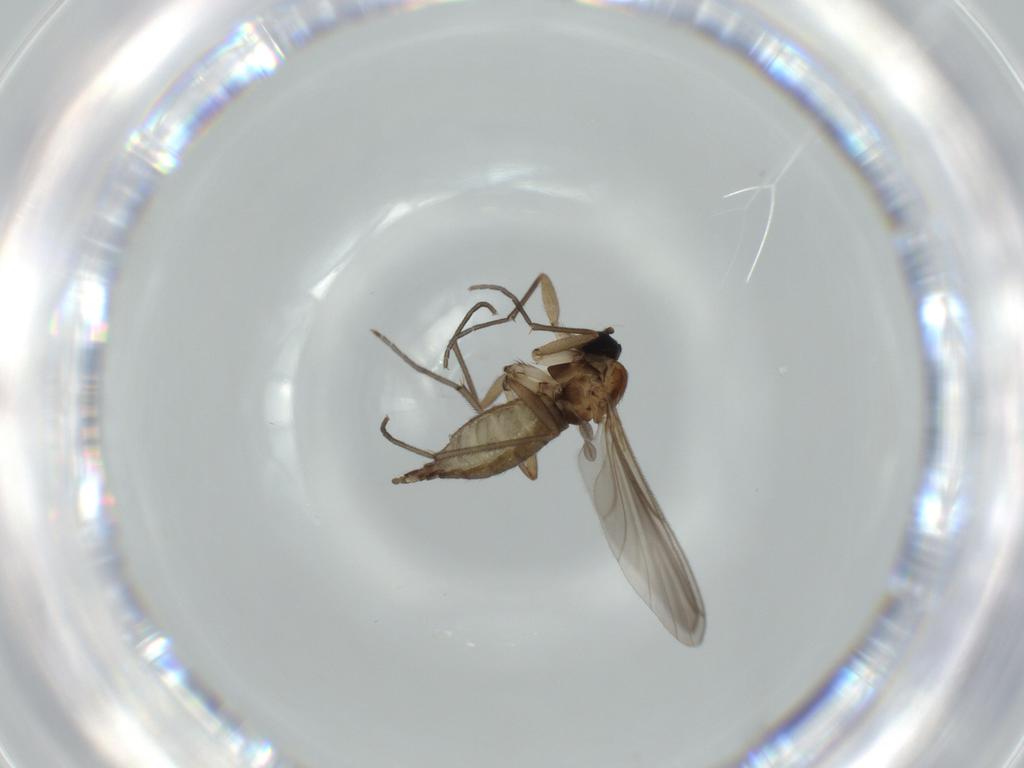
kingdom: Animalia
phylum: Arthropoda
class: Insecta
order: Diptera
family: Sciaridae
